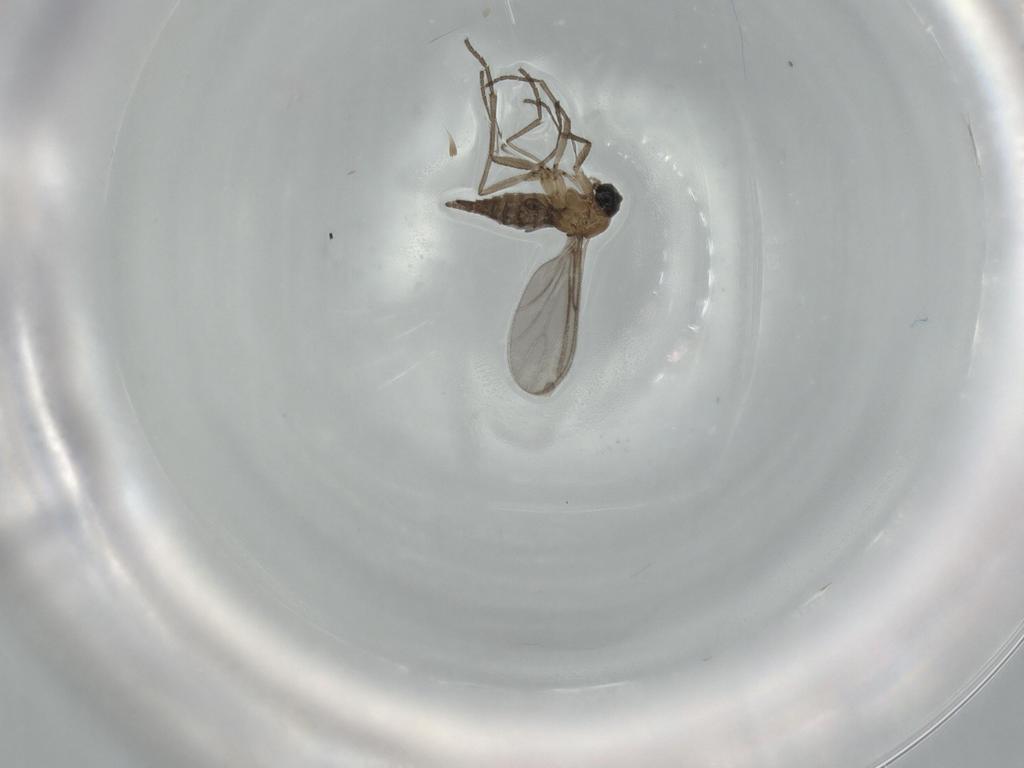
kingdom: Animalia
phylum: Arthropoda
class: Insecta
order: Diptera
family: Sciaridae
